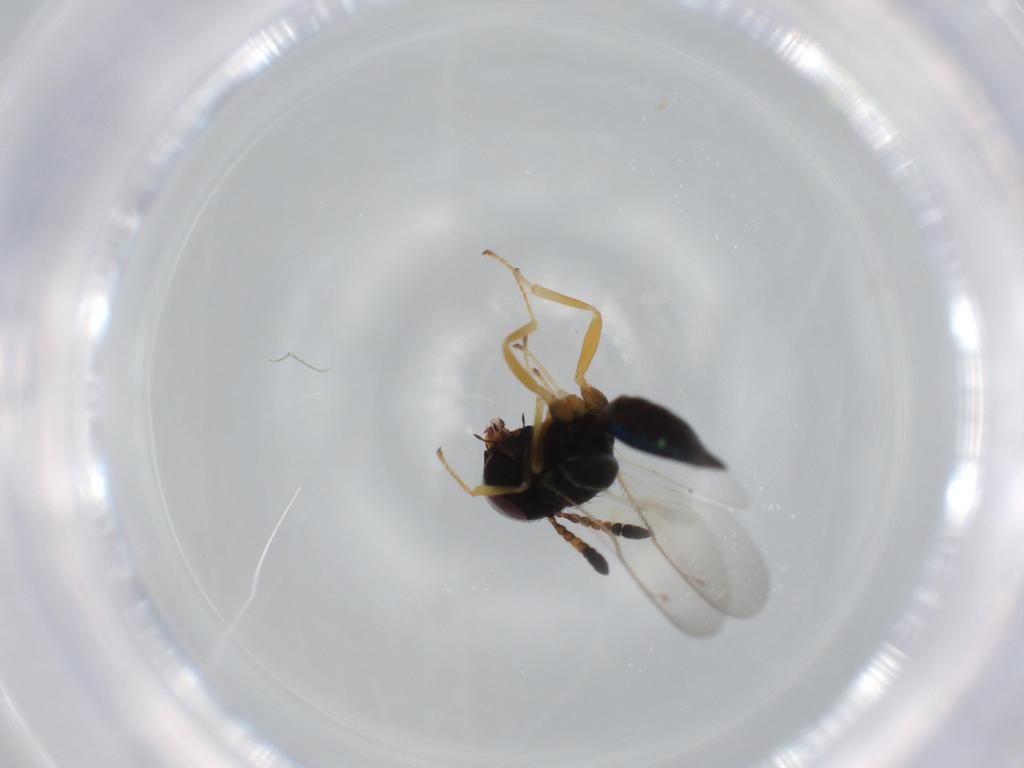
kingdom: Animalia
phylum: Arthropoda
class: Insecta
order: Hymenoptera
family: Pteromalidae
